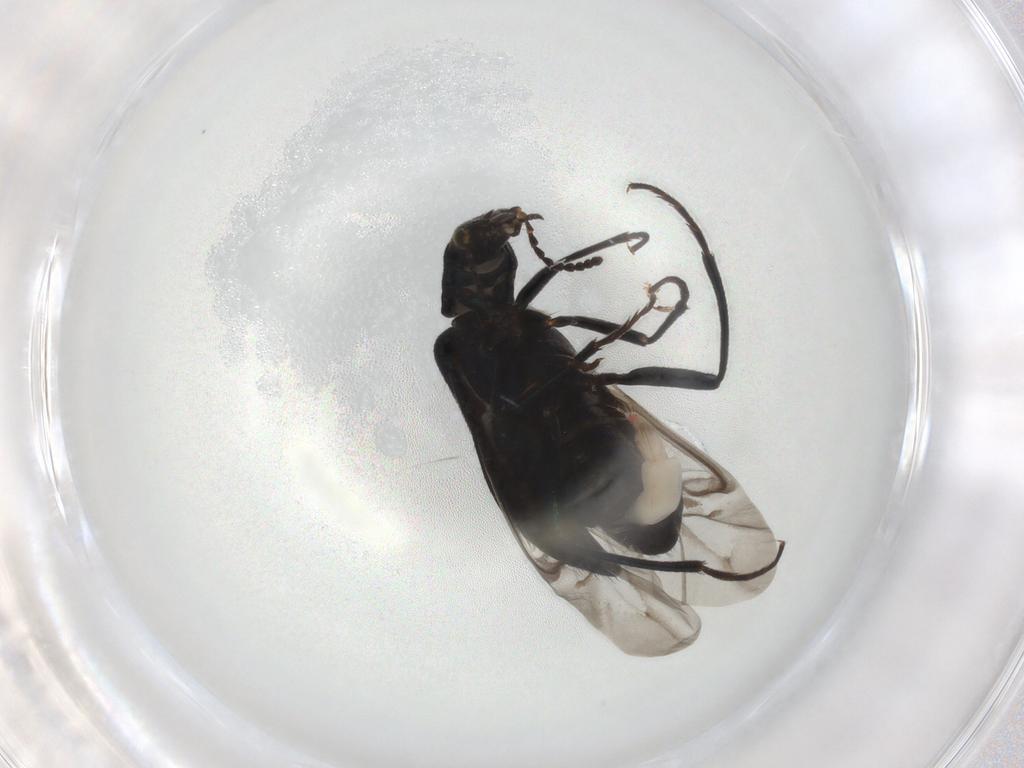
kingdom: Animalia
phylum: Arthropoda
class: Insecta
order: Coleoptera
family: Melyridae
